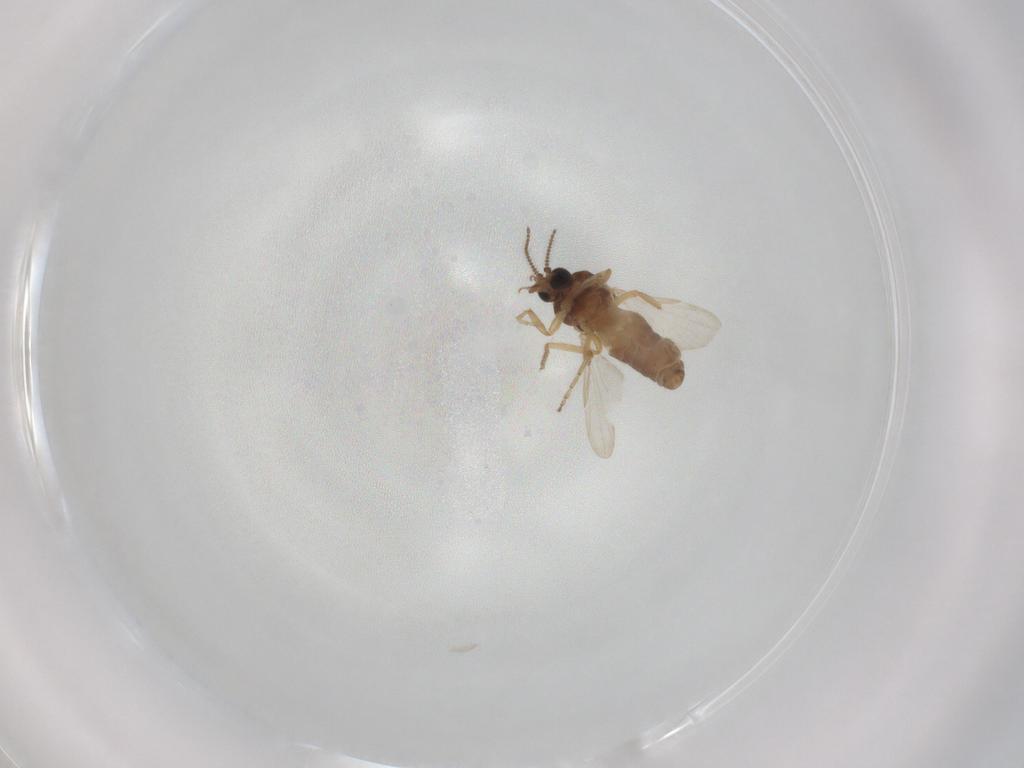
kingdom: Animalia
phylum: Arthropoda
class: Insecta
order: Diptera
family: Ceratopogonidae
